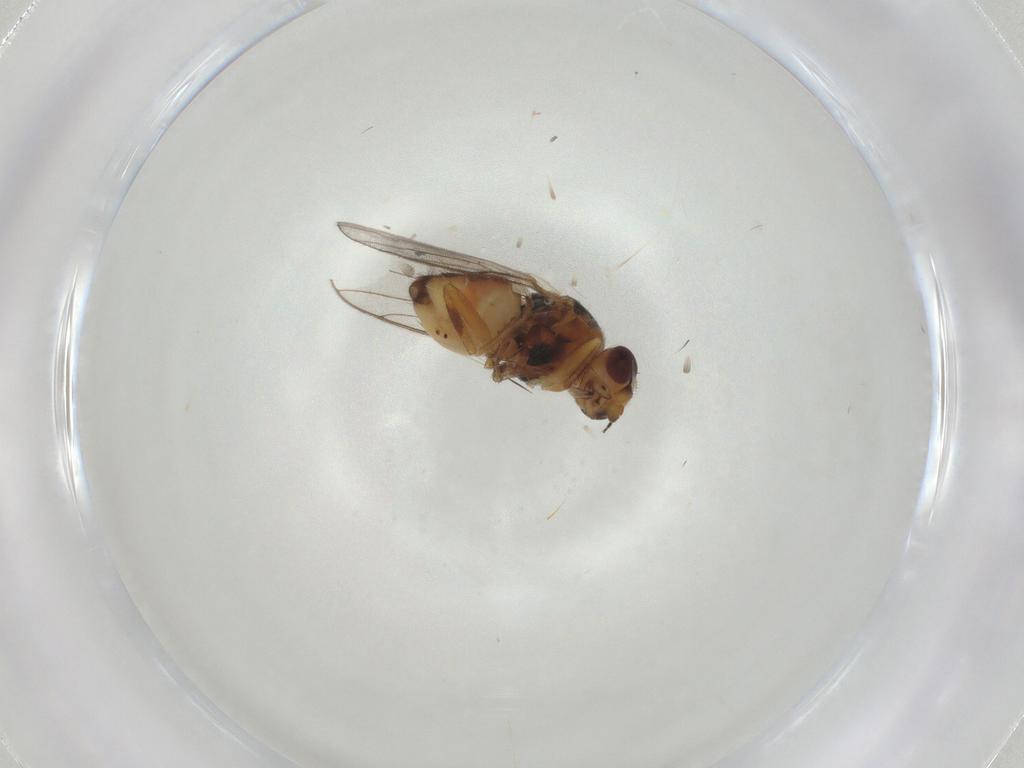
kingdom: Animalia
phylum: Arthropoda
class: Insecta
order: Diptera
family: Chloropidae
